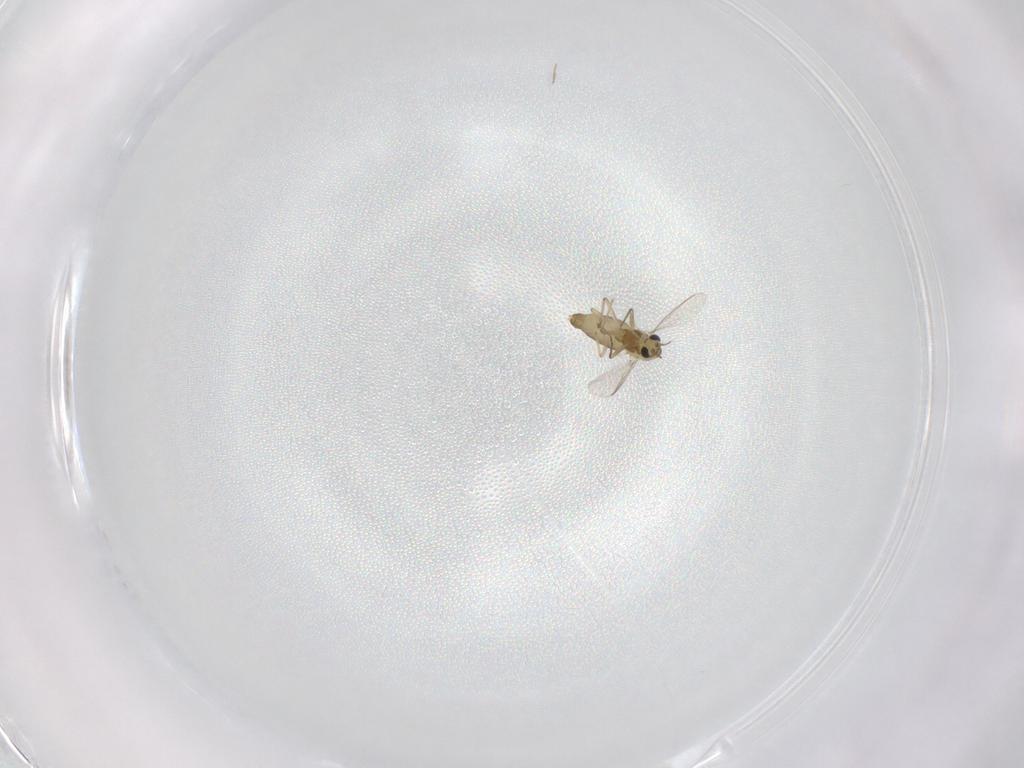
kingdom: Animalia
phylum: Arthropoda
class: Insecta
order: Diptera
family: Chironomidae
